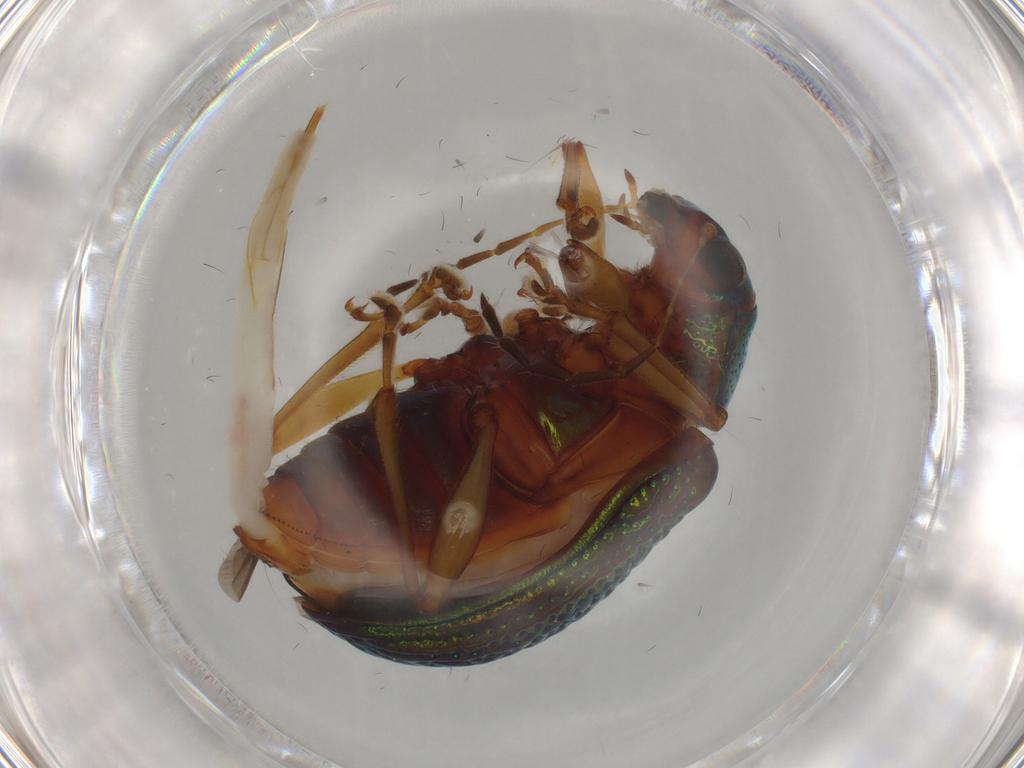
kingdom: Animalia
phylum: Arthropoda
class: Insecta
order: Coleoptera
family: Chrysomelidae
